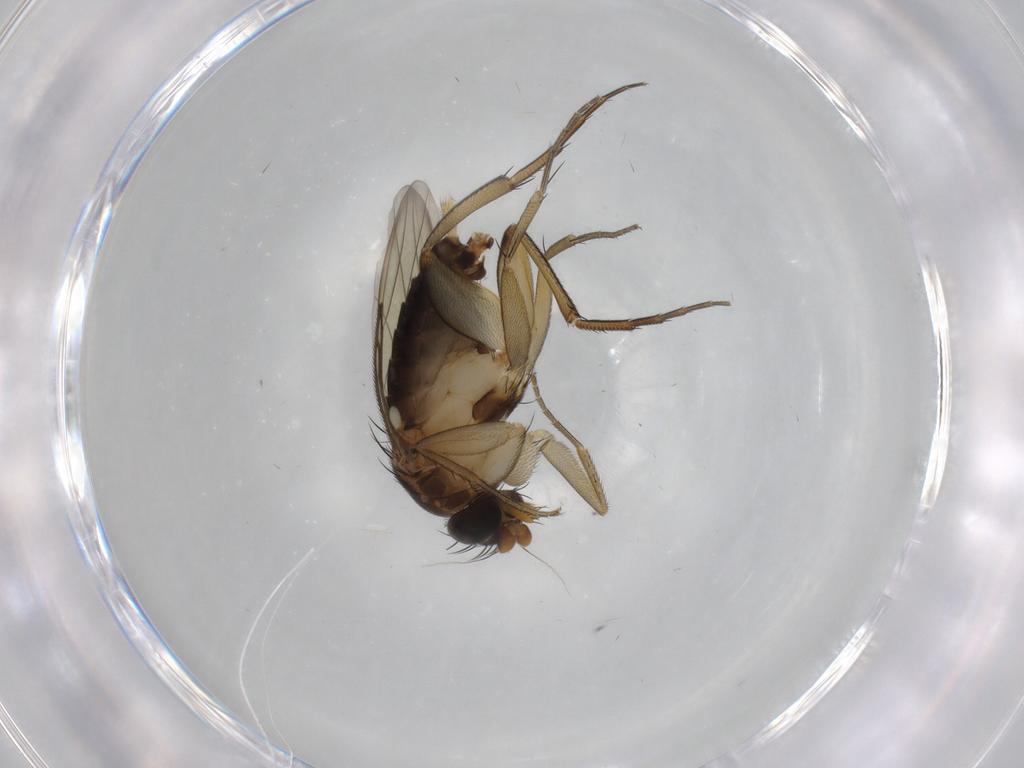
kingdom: Animalia
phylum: Arthropoda
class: Insecta
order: Diptera
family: Phoridae
